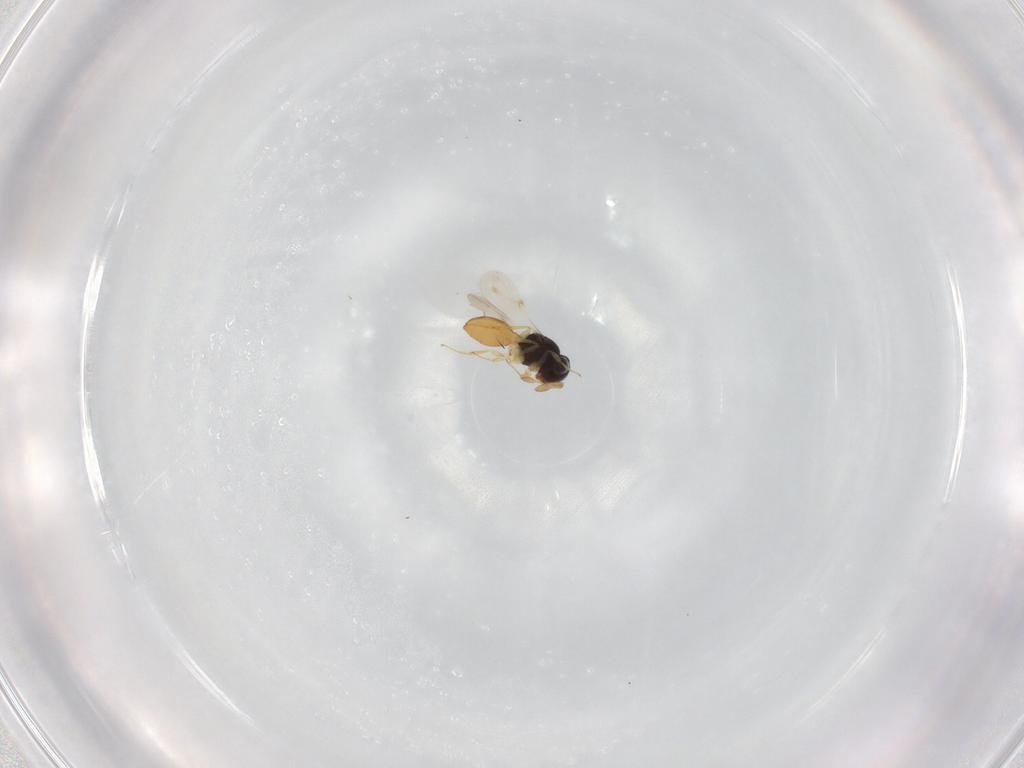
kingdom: Animalia
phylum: Arthropoda
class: Insecta
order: Hymenoptera
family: Scelionidae
